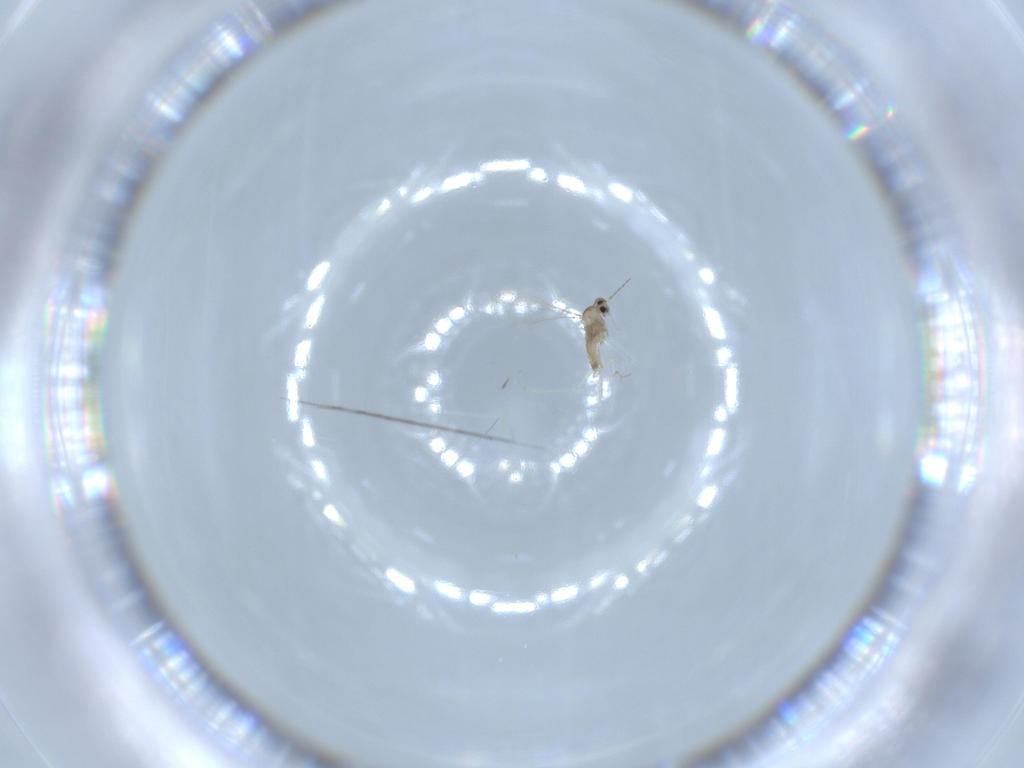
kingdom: Animalia
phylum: Arthropoda
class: Insecta
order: Diptera
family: Cecidomyiidae
